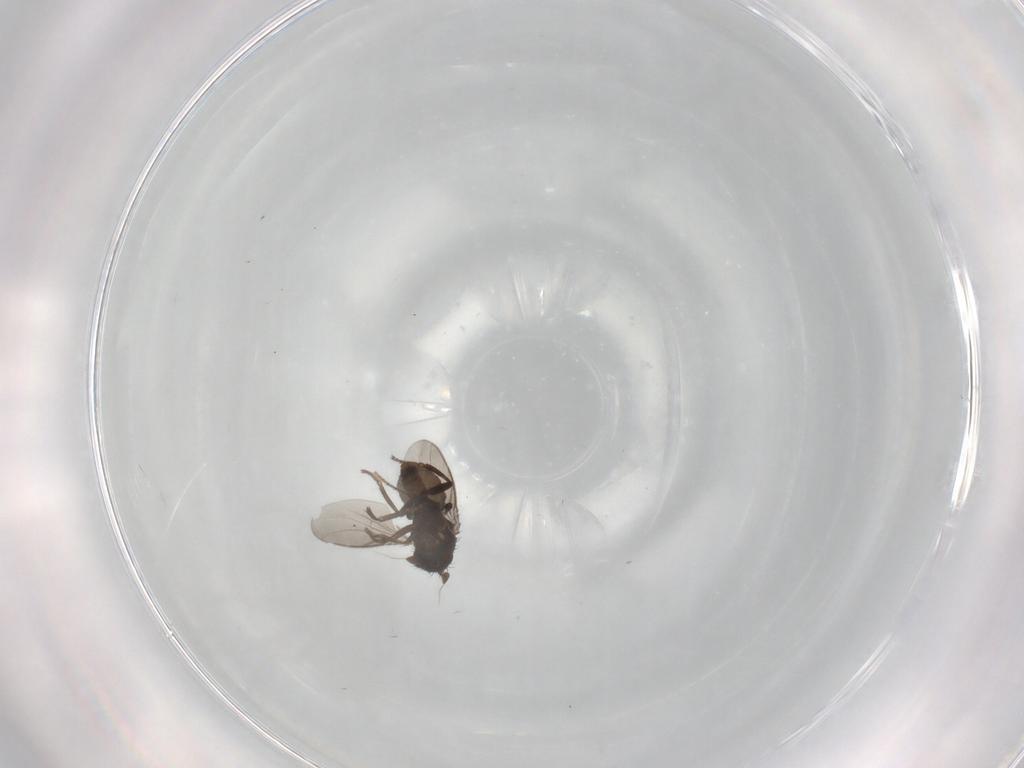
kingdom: Animalia
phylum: Arthropoda
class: Insecta
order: Diptera
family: Sphaeroceridae
